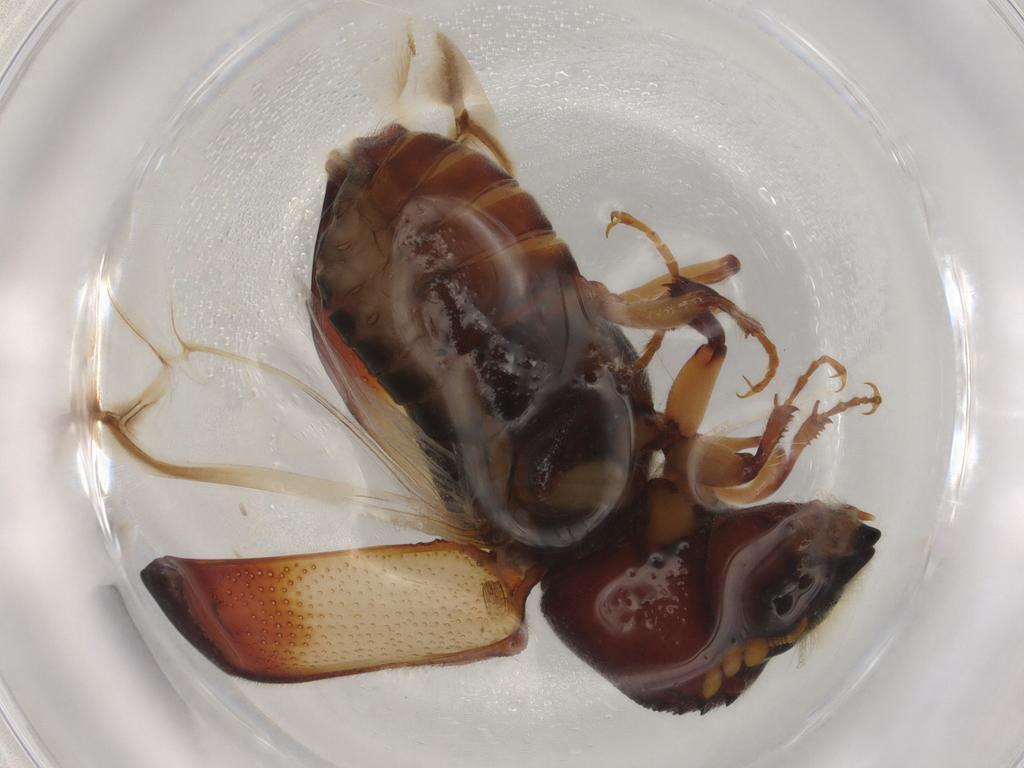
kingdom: Animalia
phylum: Arthropoda
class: Insecta
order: Coleoptera
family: Bostrichidae
